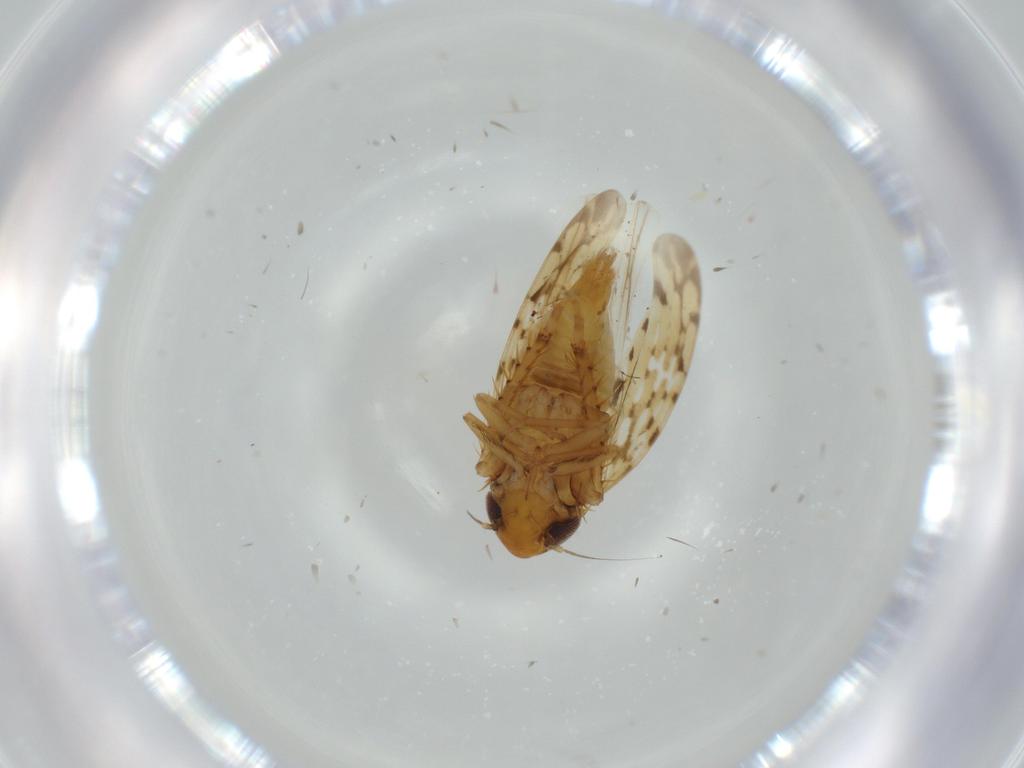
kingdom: Animalia
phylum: Arthropoda
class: Insecta
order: Hemiptera
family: Cicadellidae
